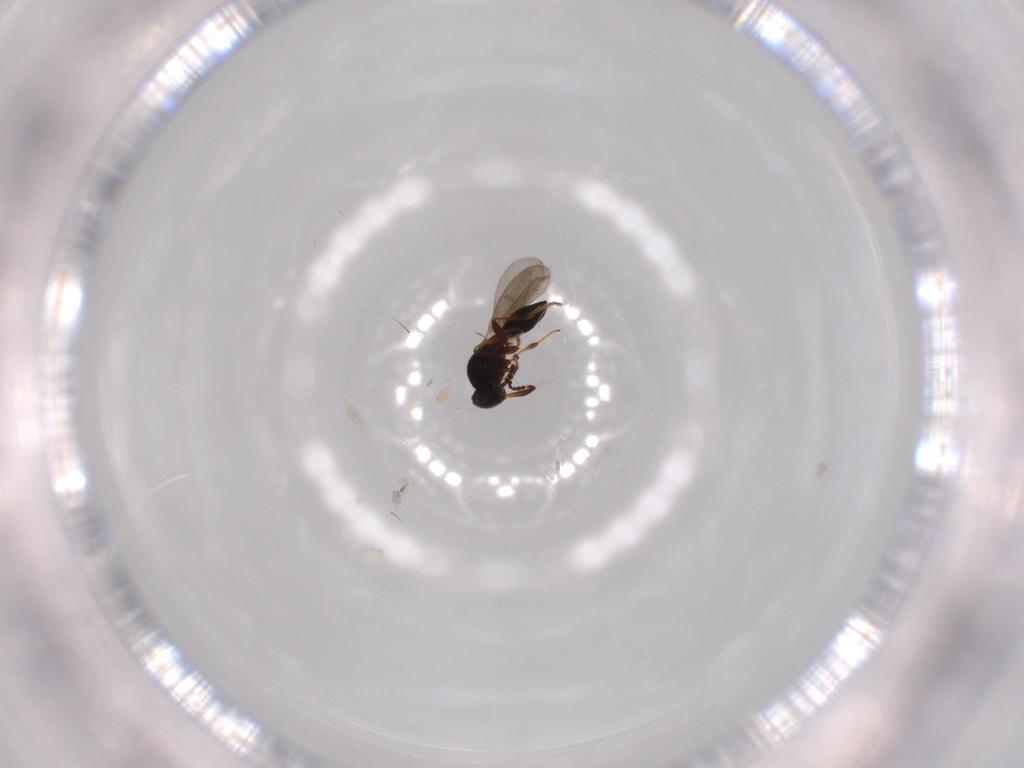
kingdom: Animalia
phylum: Arthropoda
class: Insecta
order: Hymenoptera
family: Platygastridae
